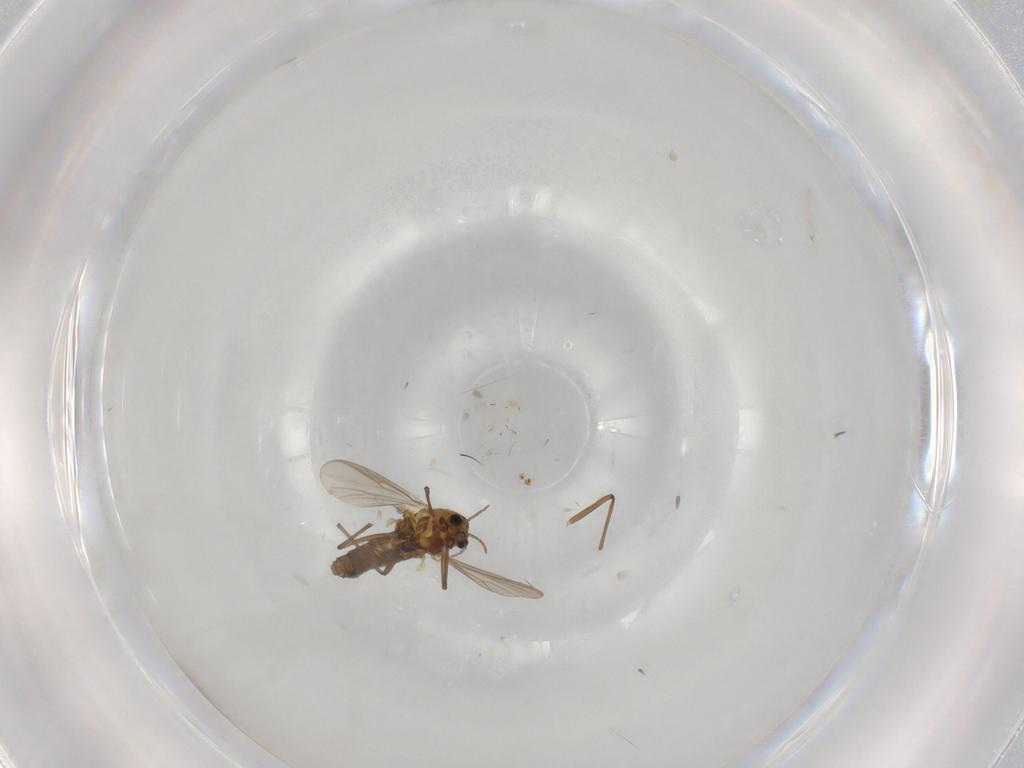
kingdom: Animalia
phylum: Arthropoda
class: Insecta
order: Diptera
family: Chironomidae
